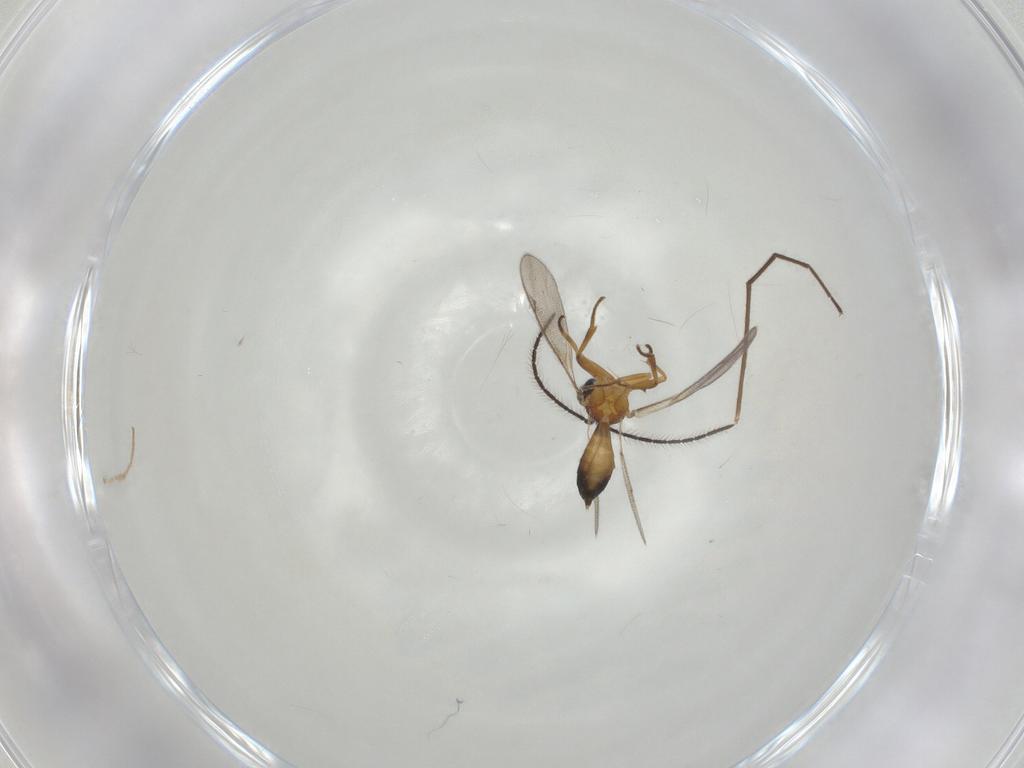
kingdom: Animalia
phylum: Arthropoda
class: Insecta
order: Hymenoptera
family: Eupelmidae
